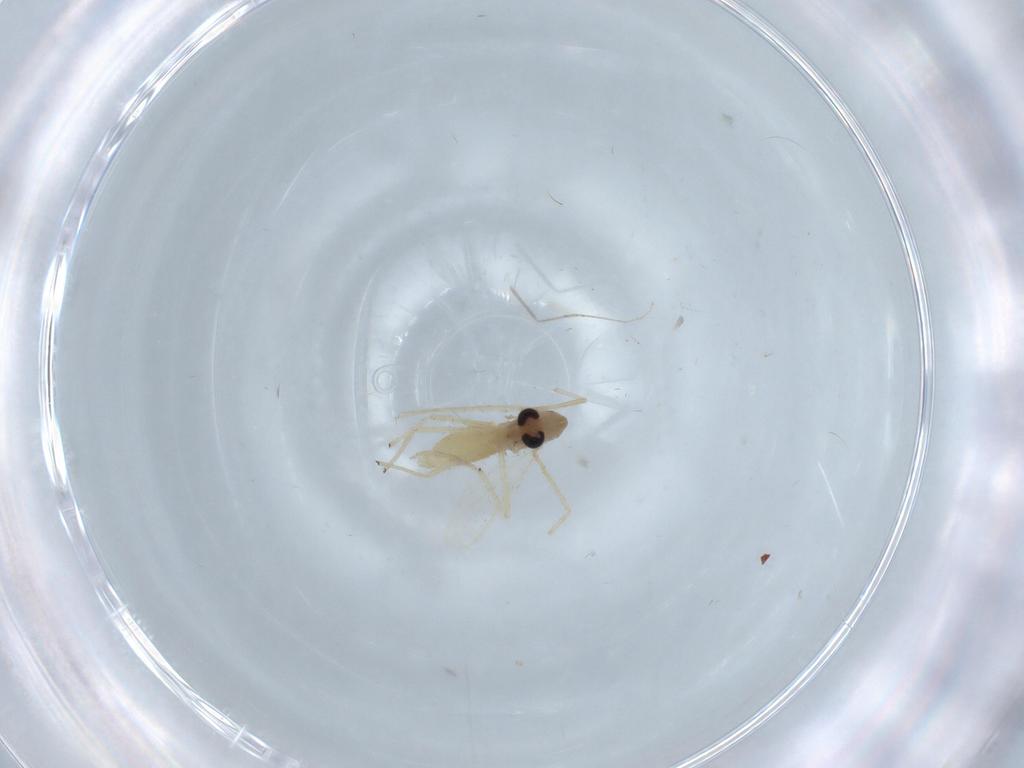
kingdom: Animalia
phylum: Arthropoda
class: Insecta
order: Diptera
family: Chironomidae
